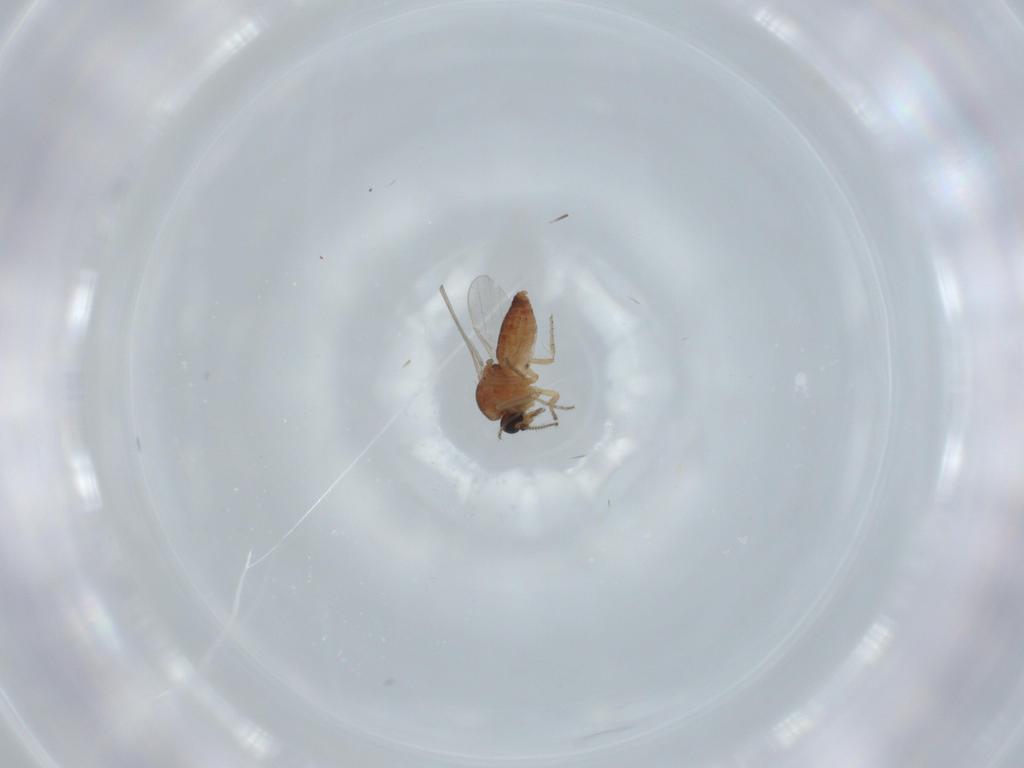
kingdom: Animalia
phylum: Arthropoda
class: Insecta
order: Diptera
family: Ceratopogonidae
